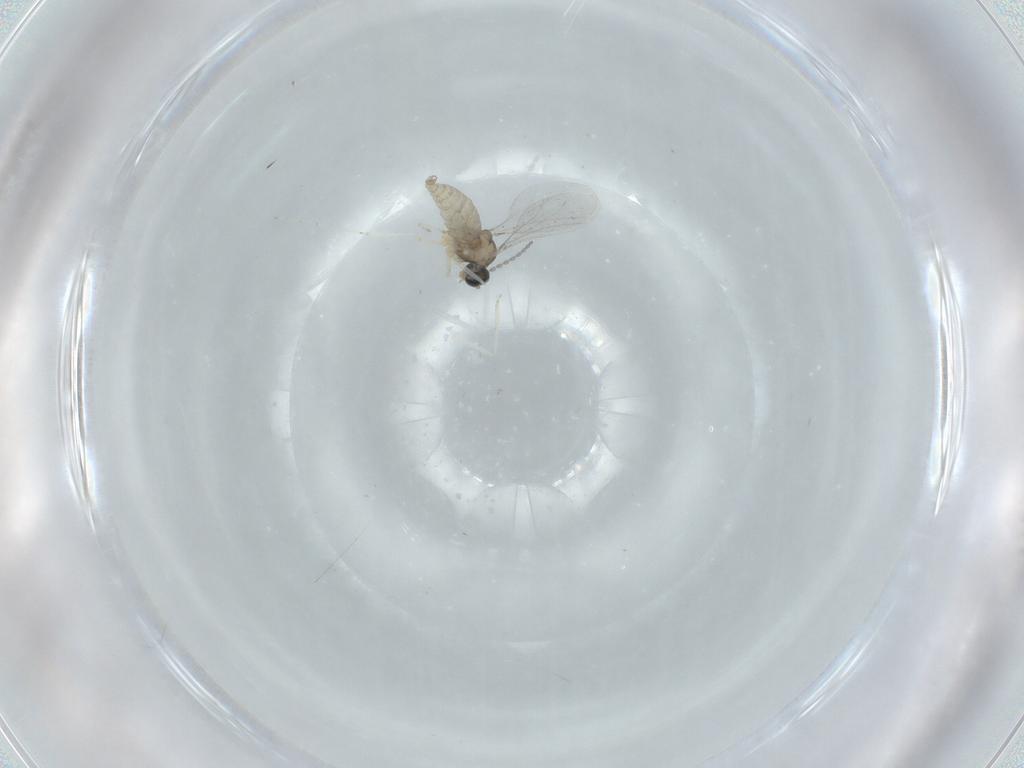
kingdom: Animalia
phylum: Arthropoda
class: Insecta
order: Diptera
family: Cecidomyiidae
